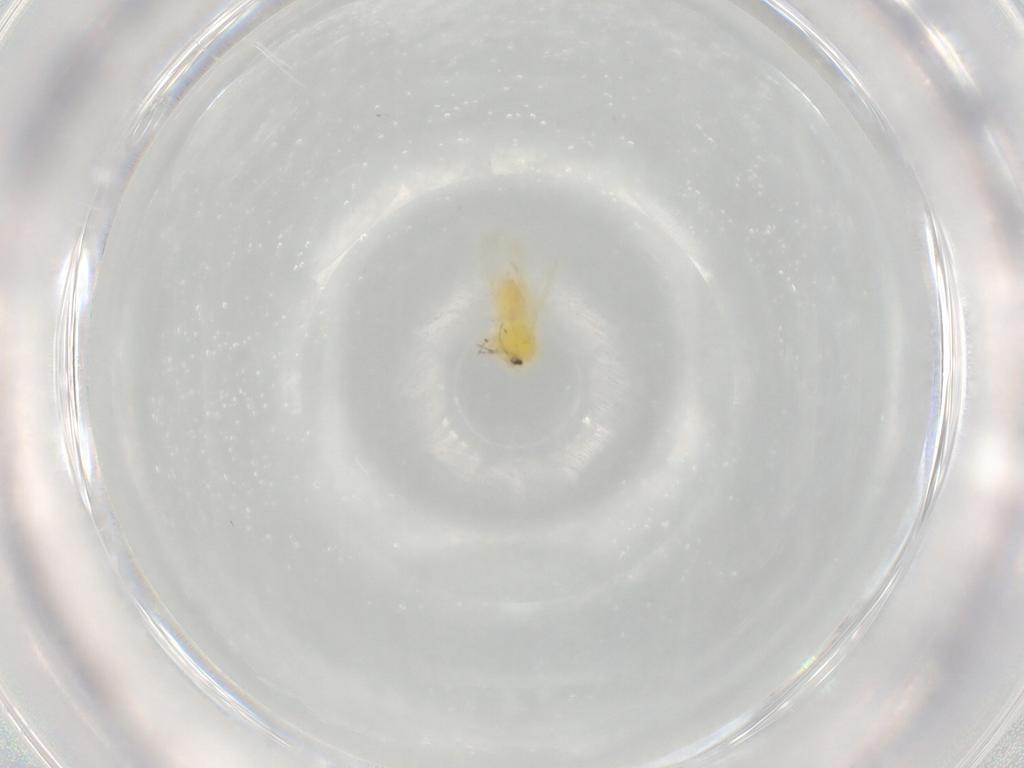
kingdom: Animalia
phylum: Arthropoda
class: Insecta
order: Hemiptera
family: Aleyrodidae
